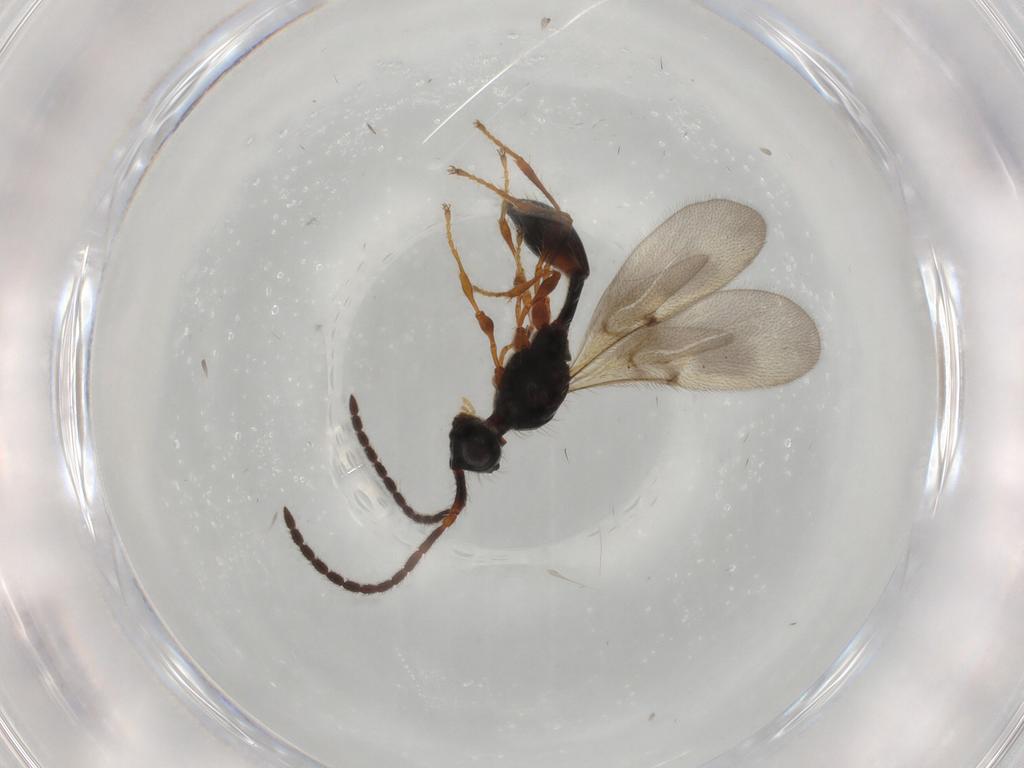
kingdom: Animalia
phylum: Arthropoda
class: Insecta
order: Hymenoptera
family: Diapriidae
